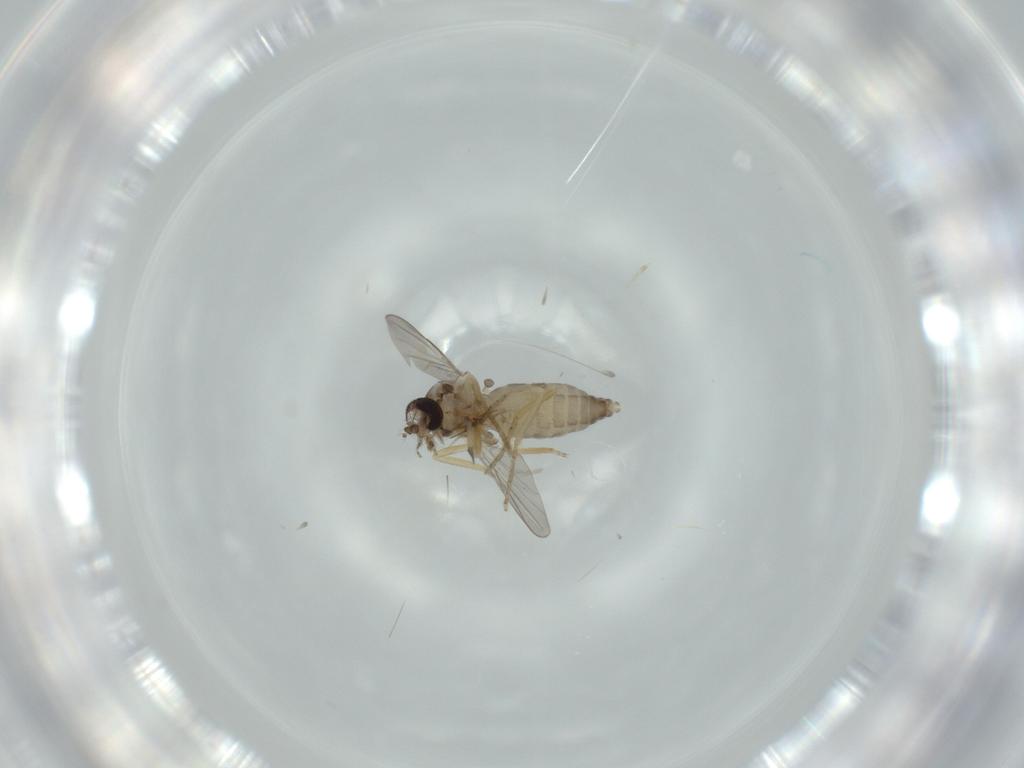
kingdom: Animalia
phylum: Arthropoda
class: Insecta
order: Diptera
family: Ceratopogonidae
